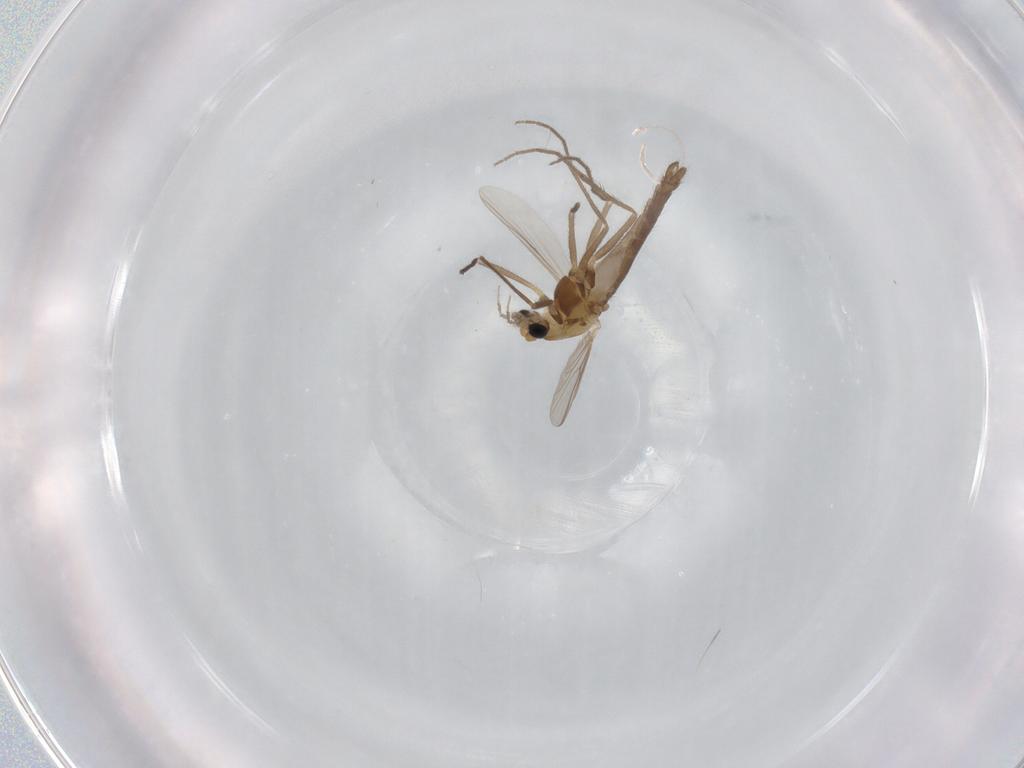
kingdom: Animalia
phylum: Arthropoda
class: Insecta
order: Diptera
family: Chironomidae
